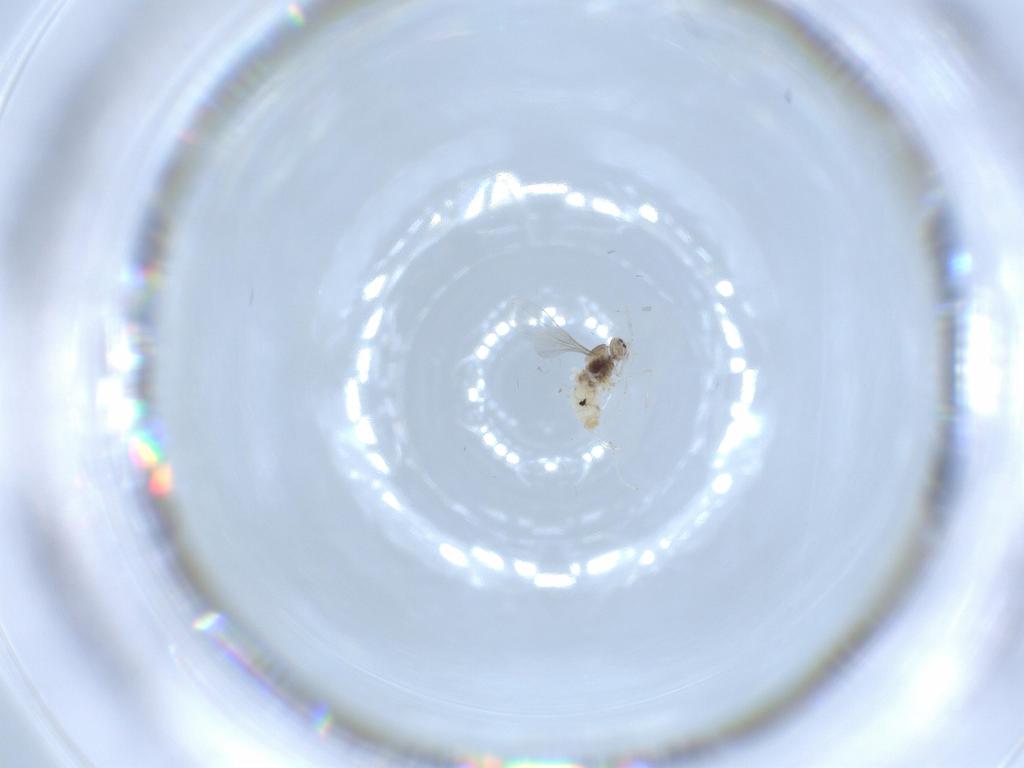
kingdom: Animalia
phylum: Arthropoda
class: Insecta
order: Diptera
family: Cecidomyiidae
